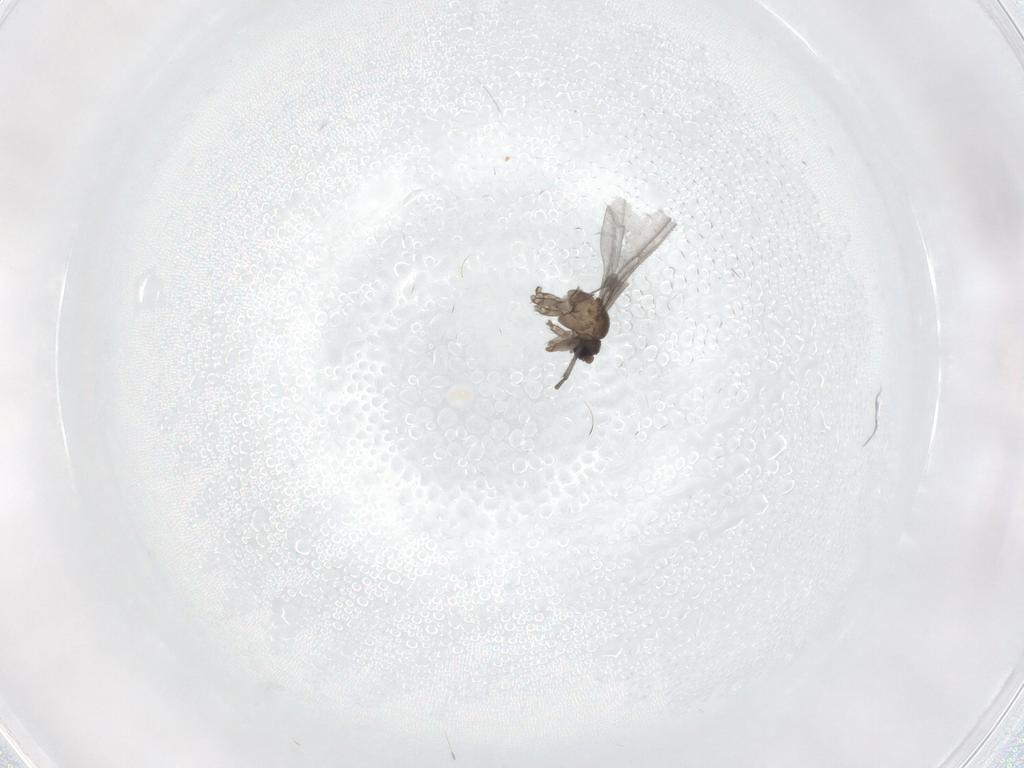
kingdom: Animalia
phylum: Arthropoda
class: Insecta
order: Diptera
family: Sciaridae
